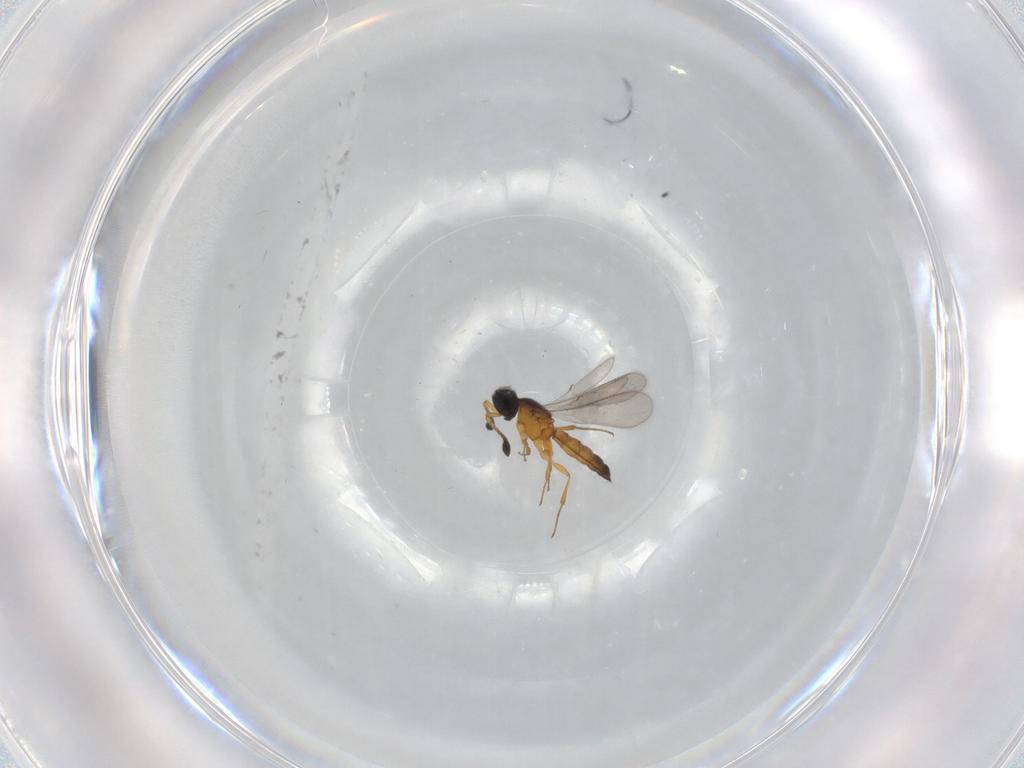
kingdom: Animalia
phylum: Arthropoda
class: Insecta
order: Hymenoptera
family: Scelionidae
